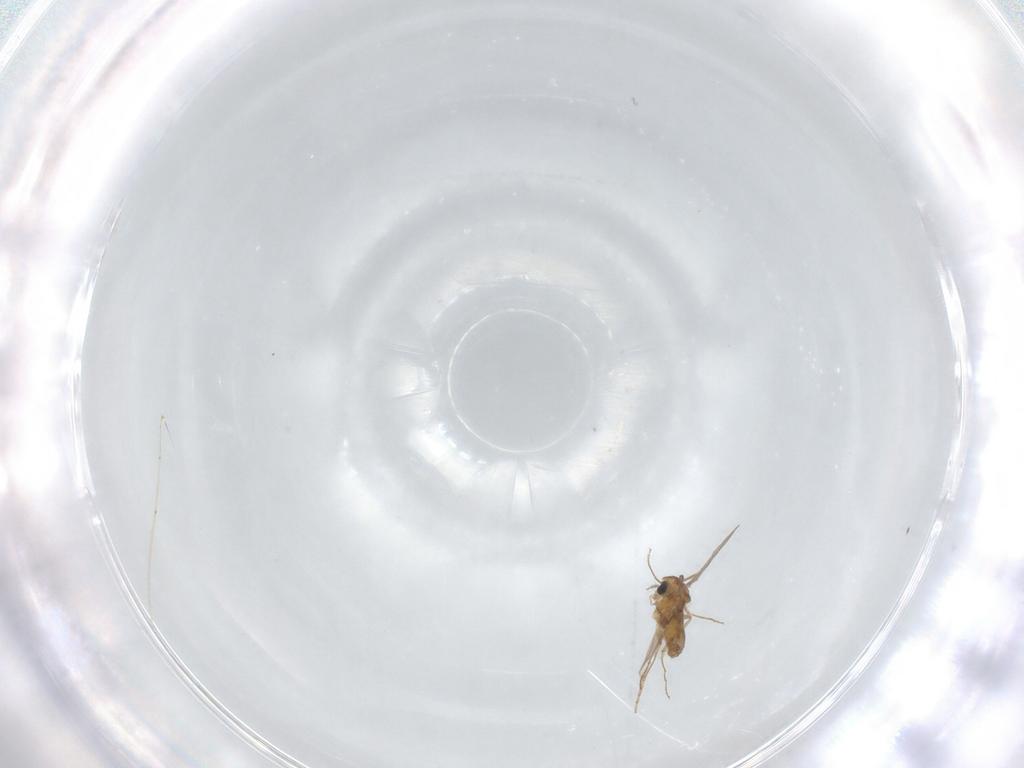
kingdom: Animalia
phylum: Arthropoda
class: Insecta
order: Diptera
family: Chironomidae
